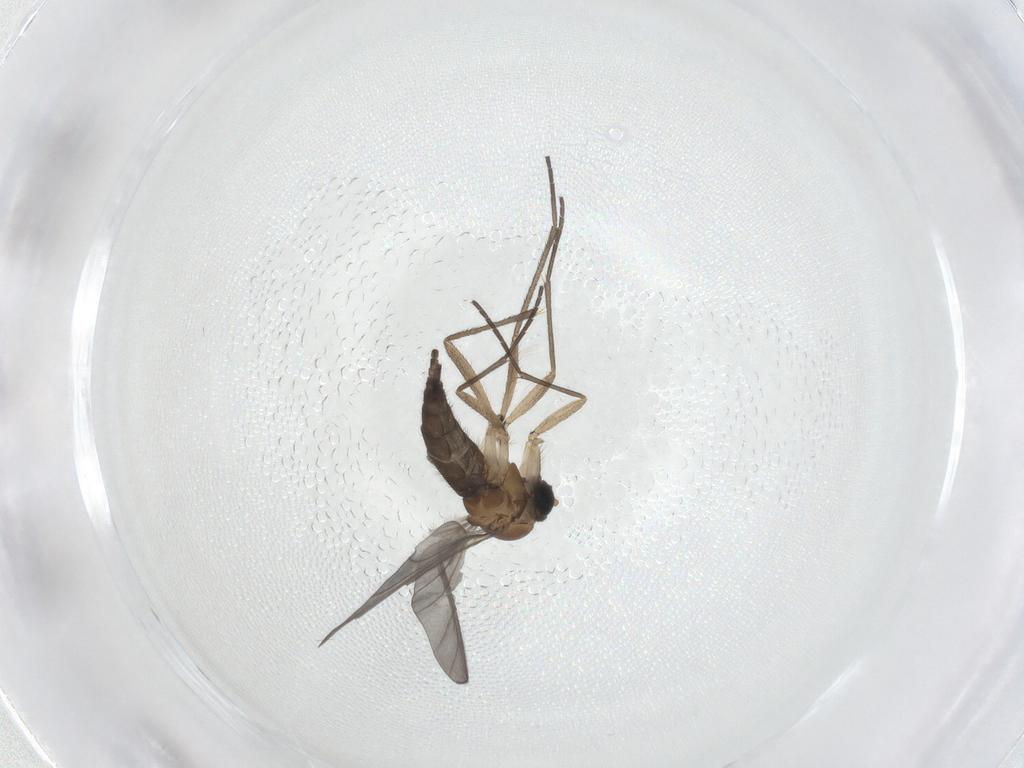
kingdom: Animalia
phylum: Arthropoda
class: Insecta
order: Diptera
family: Sciaridae
